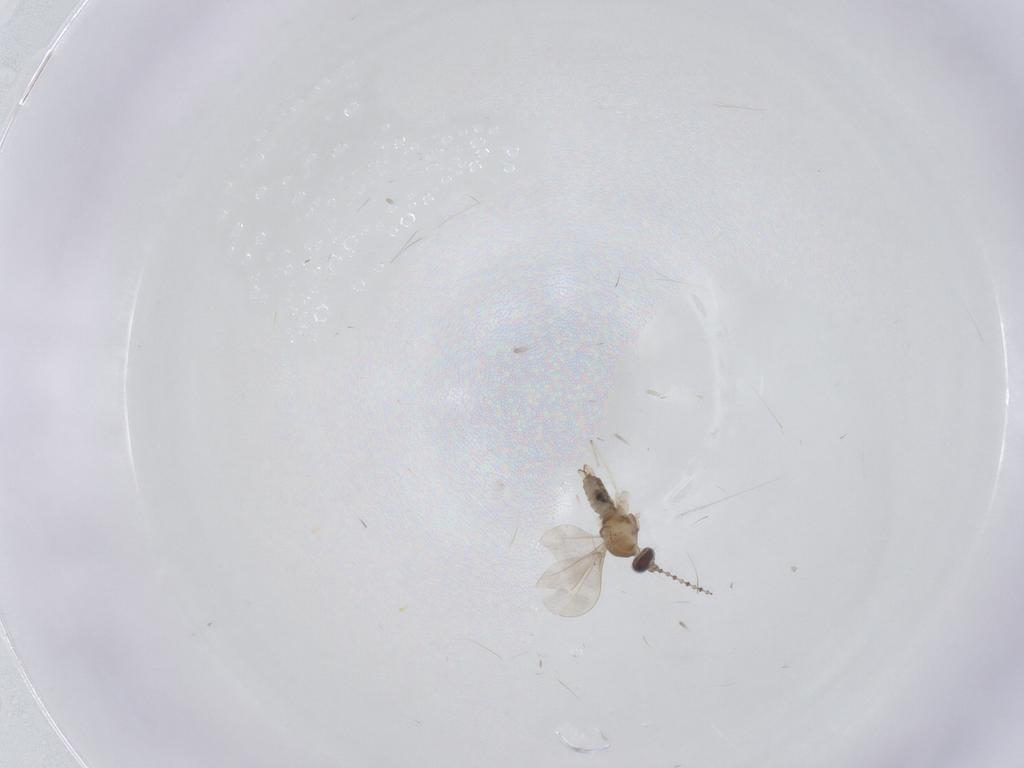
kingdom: Animalia
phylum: Arthropoda
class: Insecta
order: Diptera
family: Cecidomyiidae
